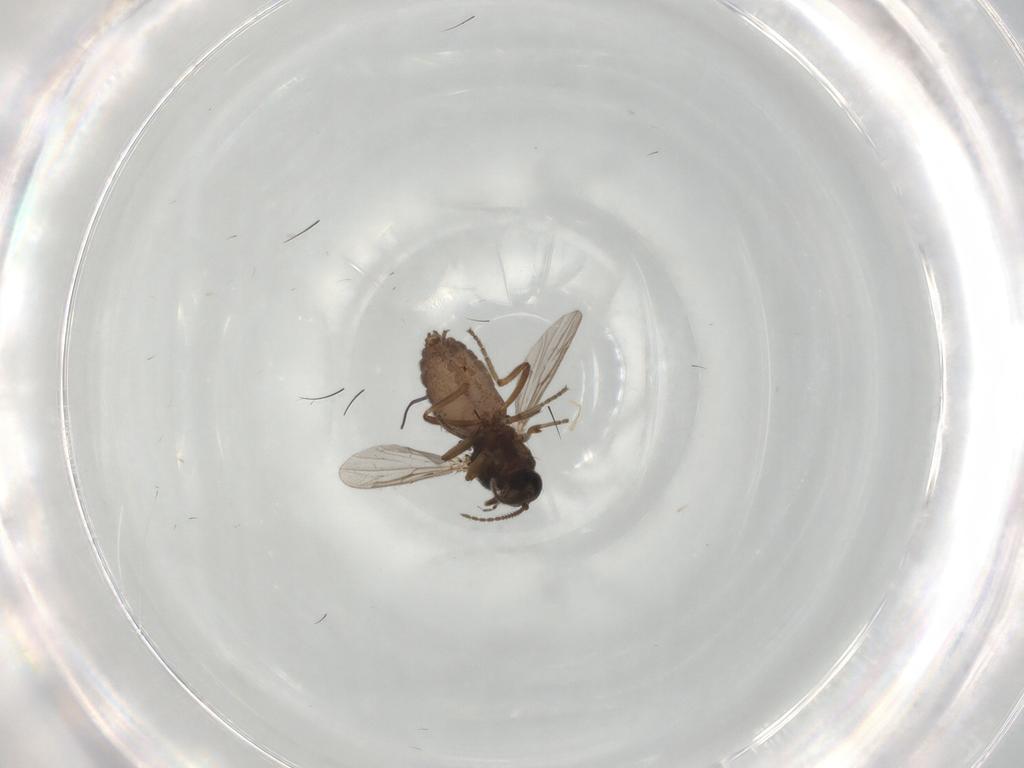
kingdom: Animalia
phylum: Arthropoda
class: Insecta
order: Diptera
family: Ceratopogonidae
